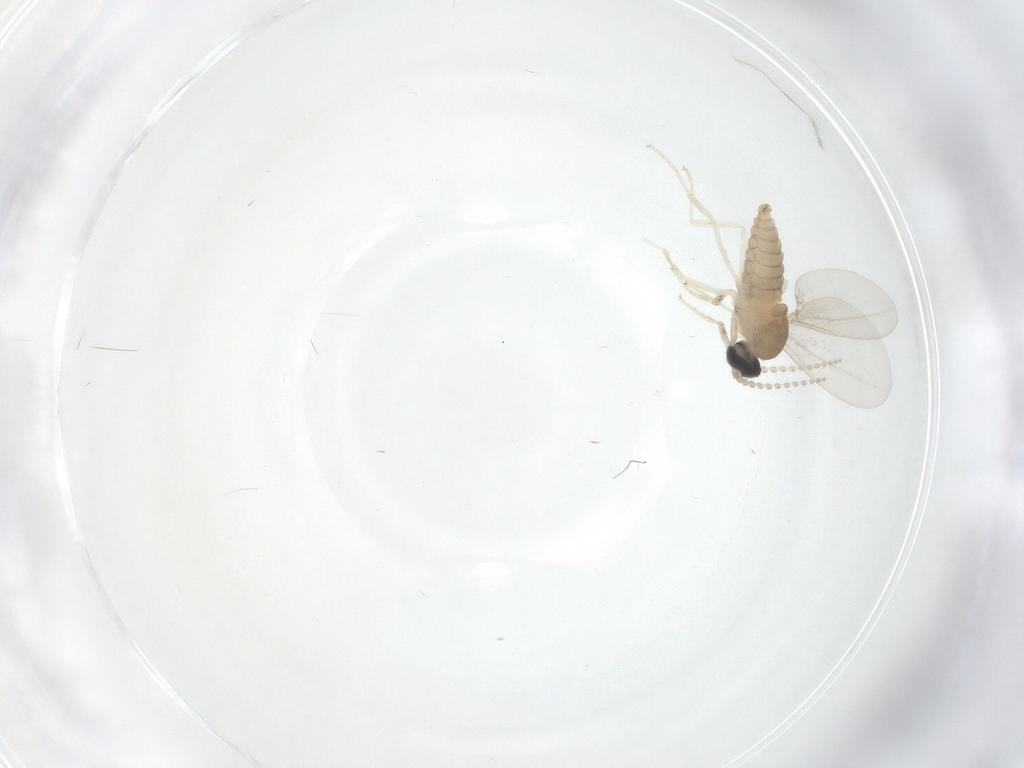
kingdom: Animalia
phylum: Arthropoda
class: Insecta
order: Diptera
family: Cecidomyiidae
